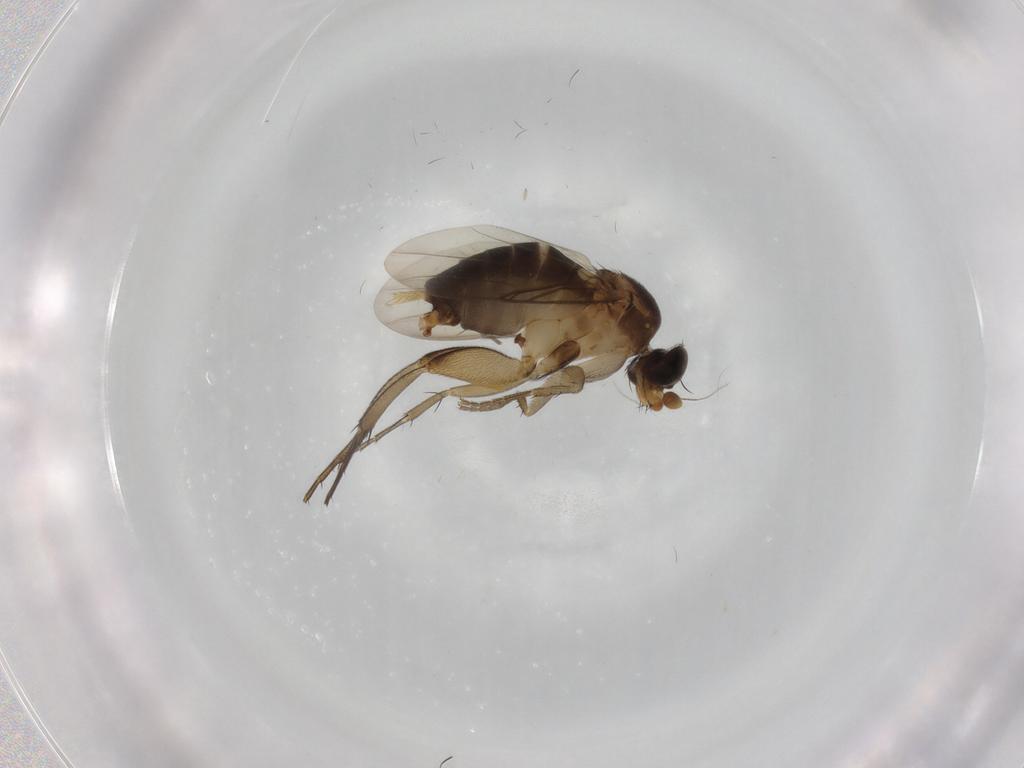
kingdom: Animalia
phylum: Arthropoda
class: Insecta
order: Diptera
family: Phoridae
